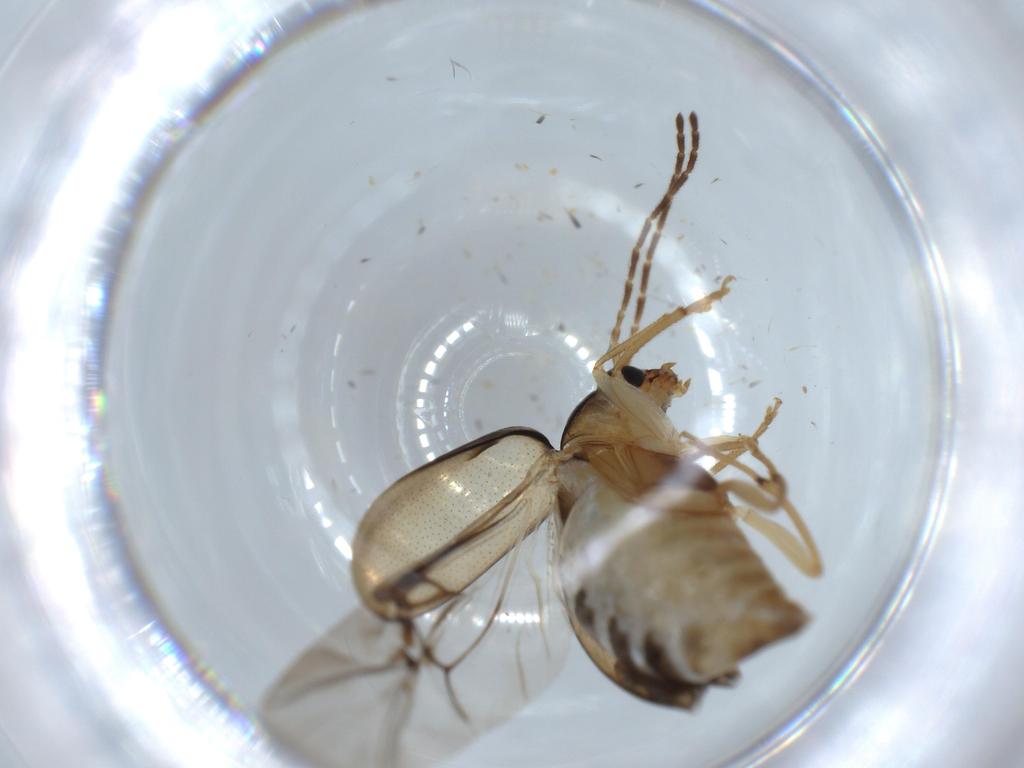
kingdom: Animalia
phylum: Arthropoda
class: Insecta
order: Coleoptera
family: Chrysomelidae
